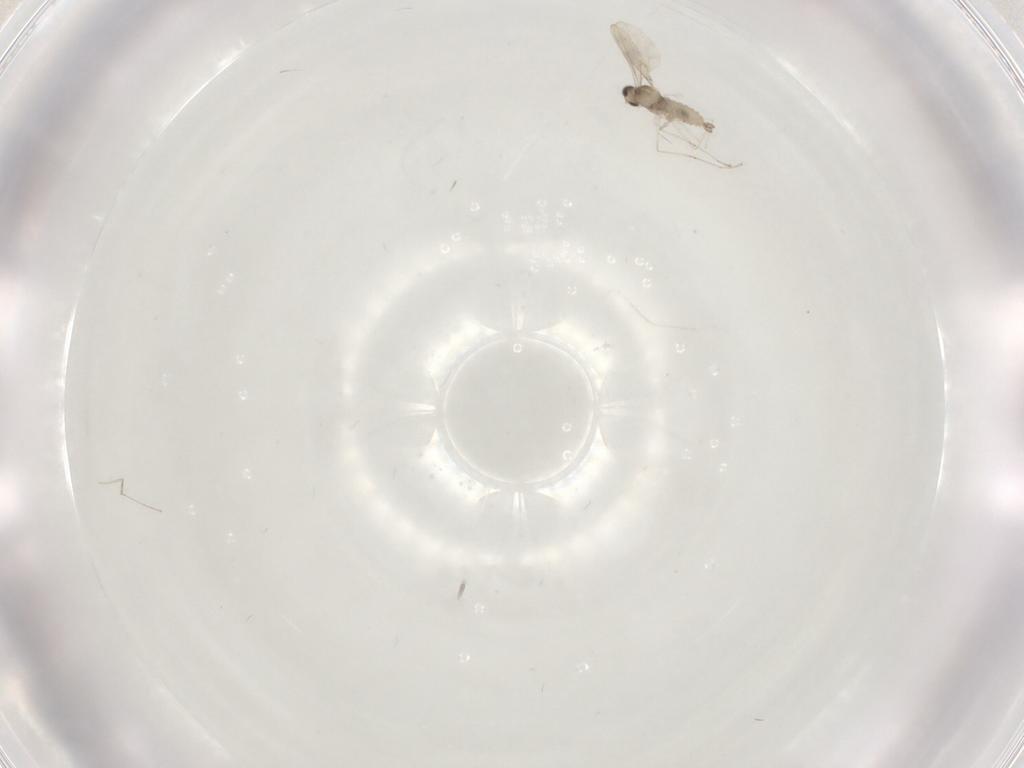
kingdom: Animalia
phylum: Arthropoda
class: Insecta
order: Diptera
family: Cecidomyiidae
